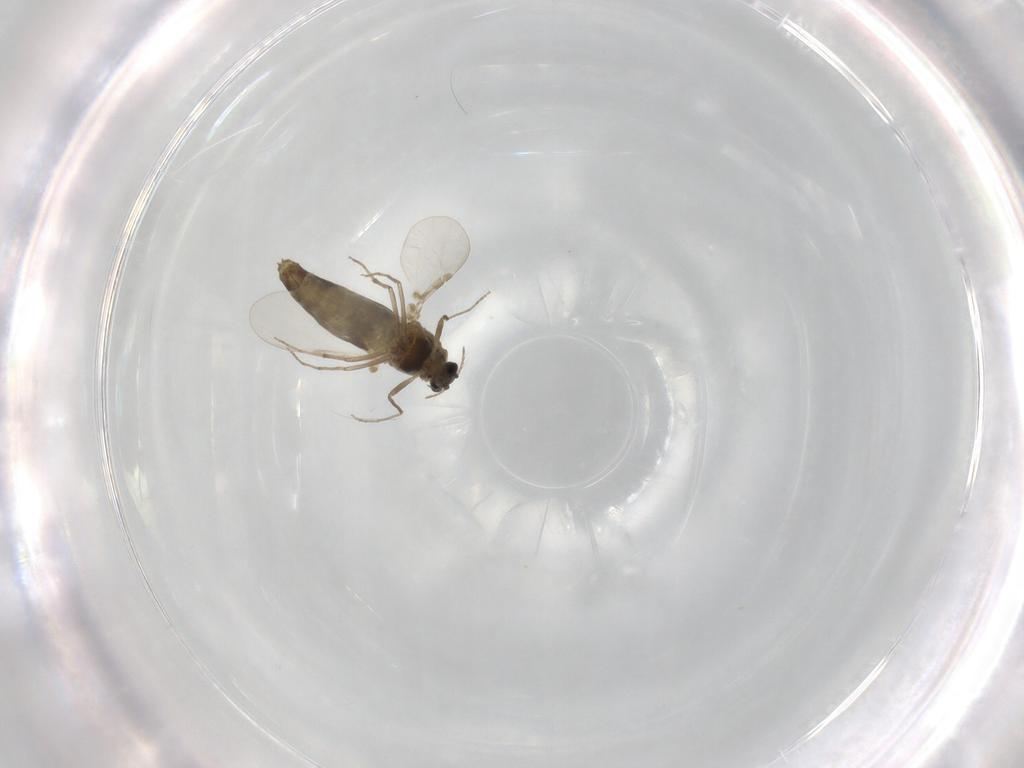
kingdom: Animalia
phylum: Arthropoda
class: Insecta
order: Diptera
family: Chironomidae
